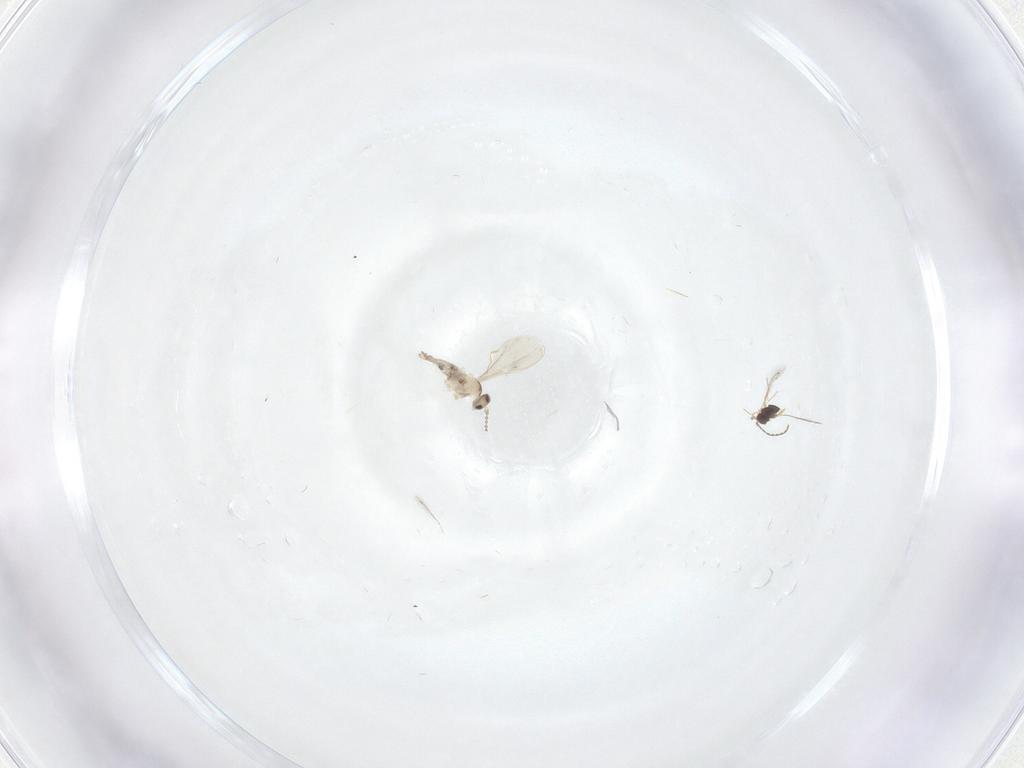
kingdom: Animalia
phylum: Arthropoda
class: Insecta
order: Diptera
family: Cecidomyiidae
